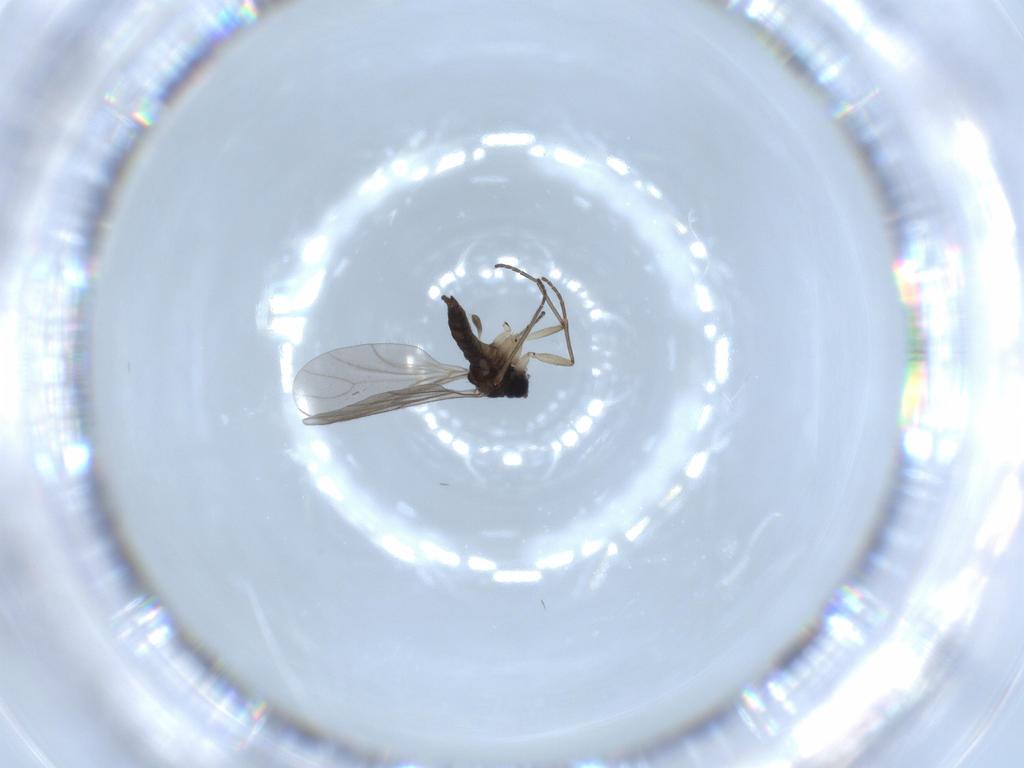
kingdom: Animalia
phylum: Arthropoda
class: Insecta
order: Diptera
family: Sciaridae
